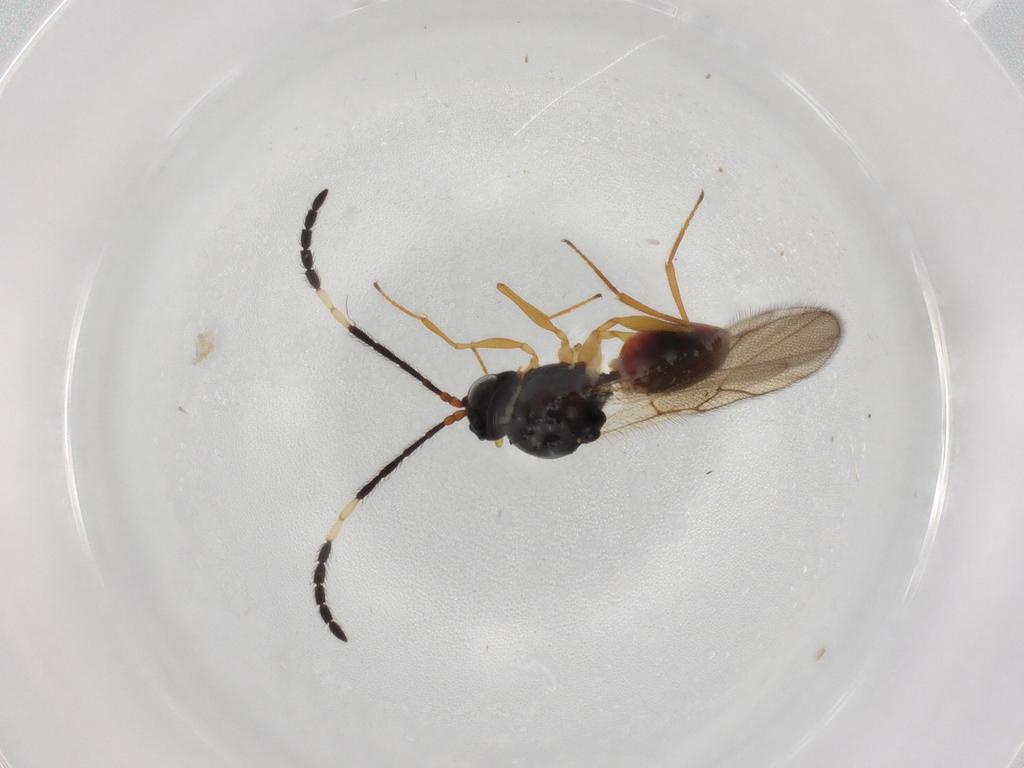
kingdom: Animalia
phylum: Arthropoda
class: Insecta
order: Hymenoptera
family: Figitidae
